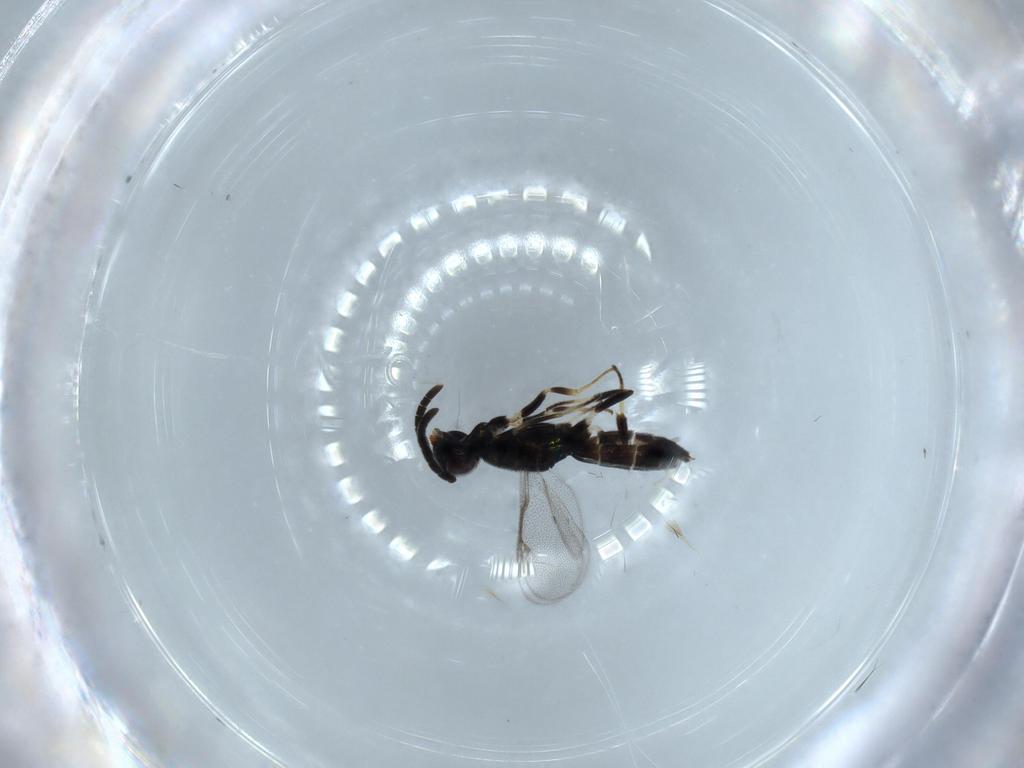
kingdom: Animalia
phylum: Arthropoda
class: Insecta
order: Hymenoptera
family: Eupelmidae
